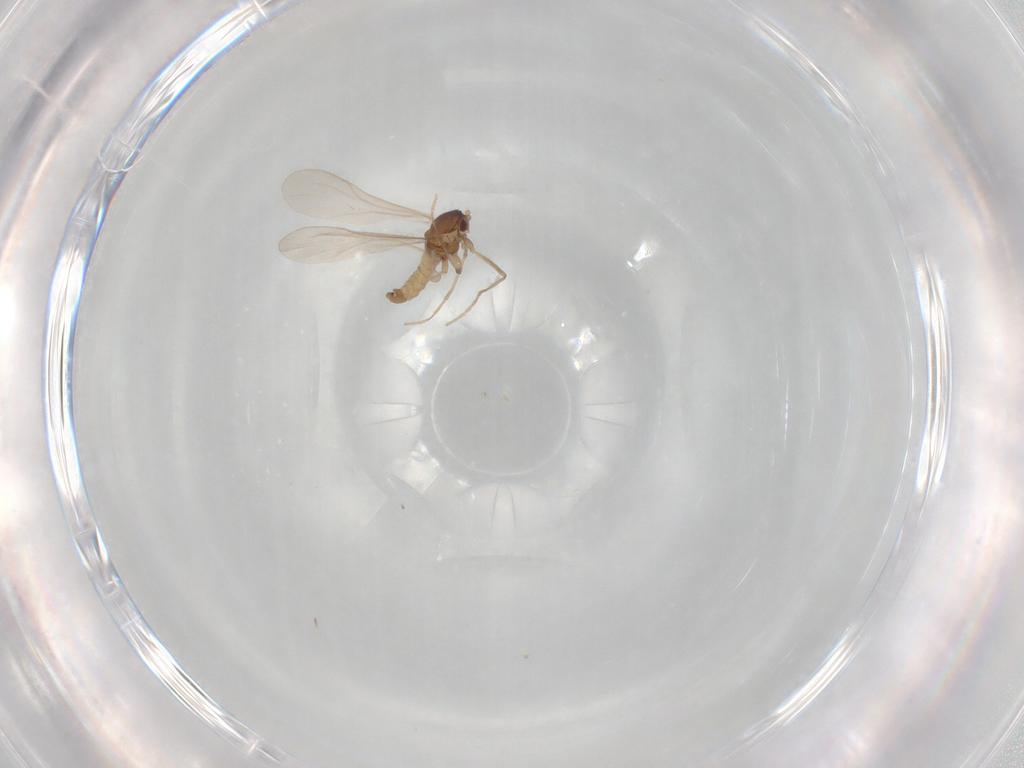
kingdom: Animalia
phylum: Arthropoda
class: Insecta
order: Diptera
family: Cecidomyiidae
